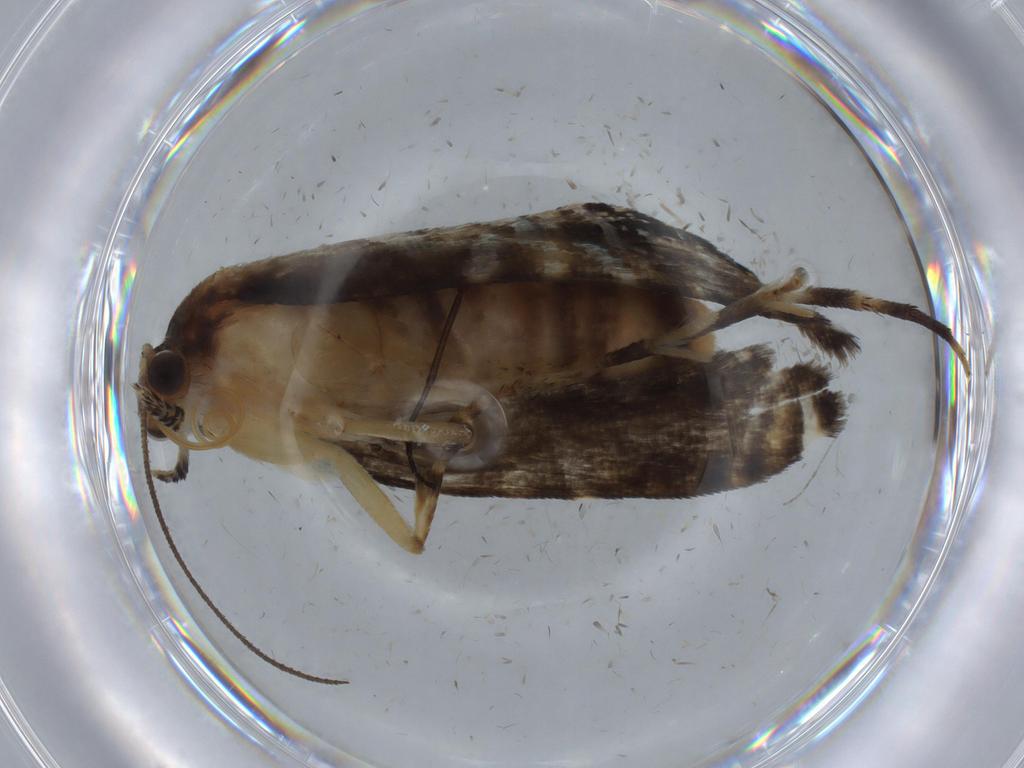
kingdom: Animalia
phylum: Arthropoda
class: Insecta
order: Lepidoptera
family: Glyphipterigidae
